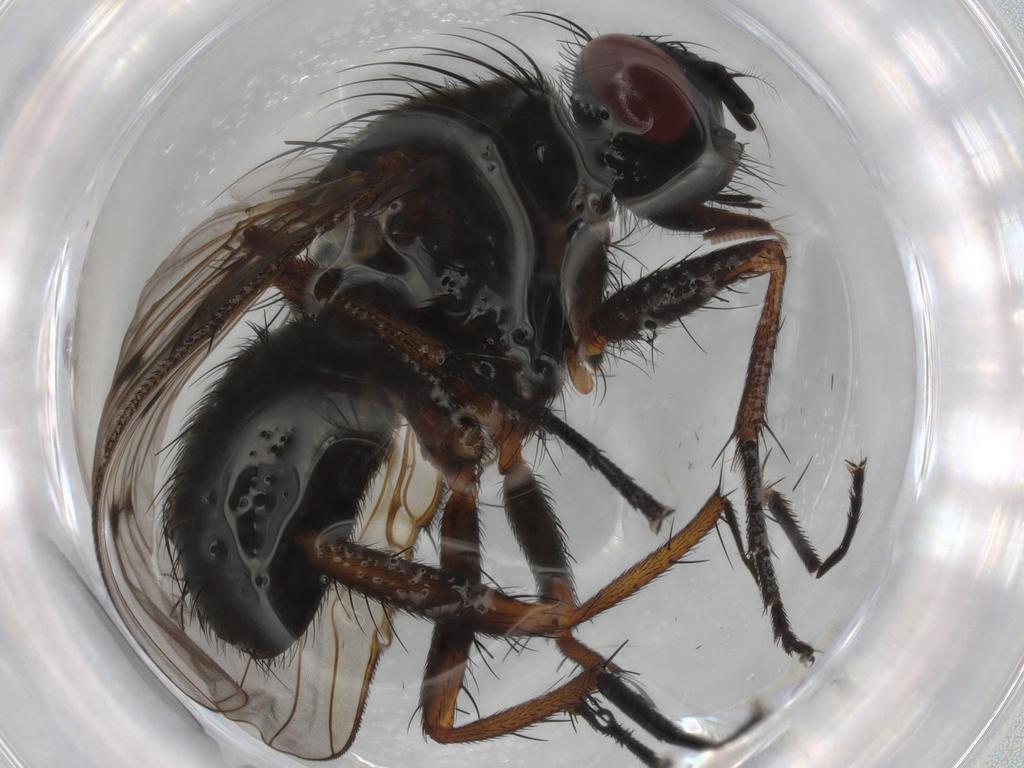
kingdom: Animalia
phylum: Arthropoda
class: Insecta
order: Diptera
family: Muscidae
